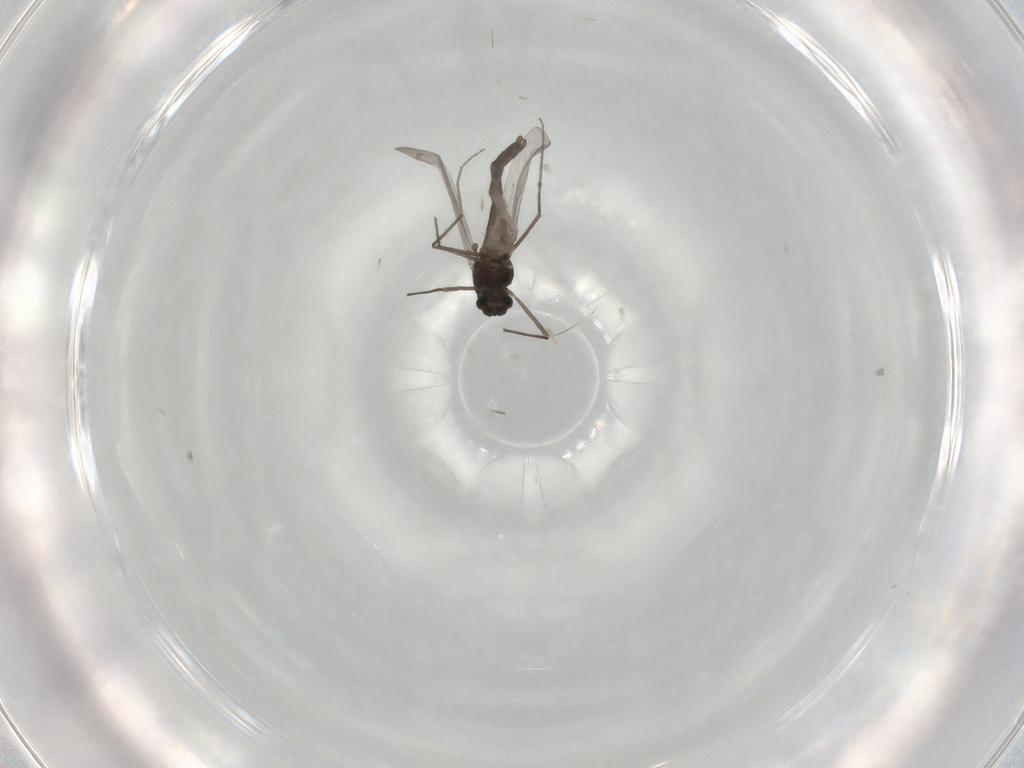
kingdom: Animalia
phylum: Arthropoda
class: Insecta
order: Diptera
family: Chironomidae
